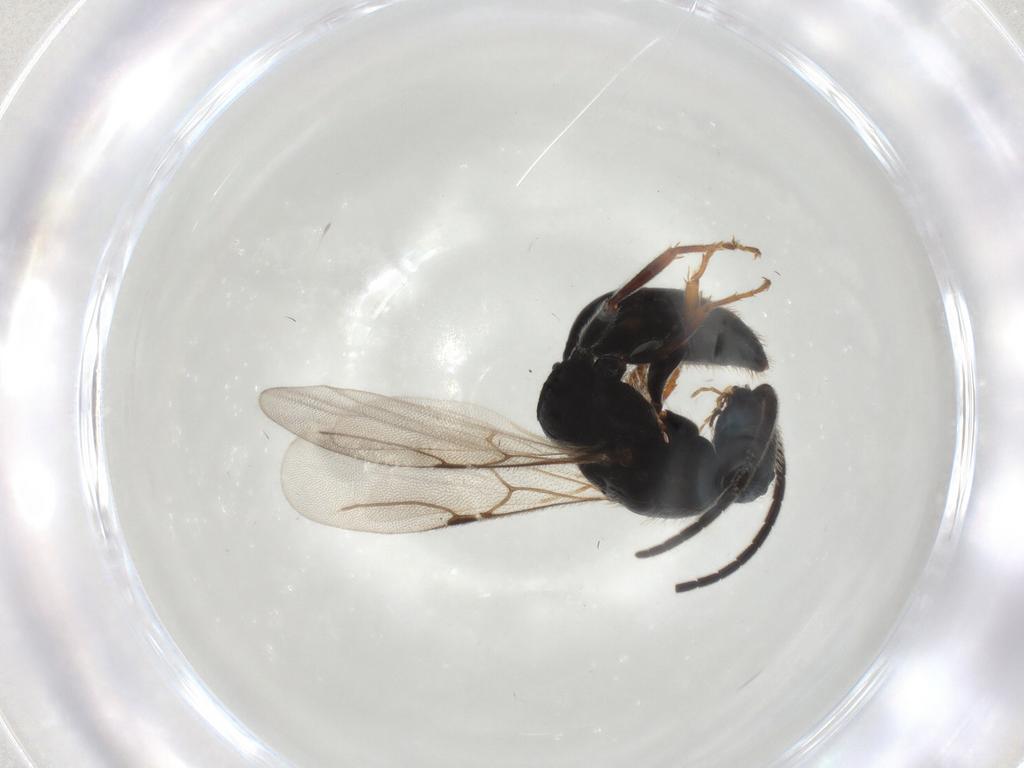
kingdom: Animalia
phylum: Arthropoda
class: Insecta
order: Hymenoptera
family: Bethylidae
